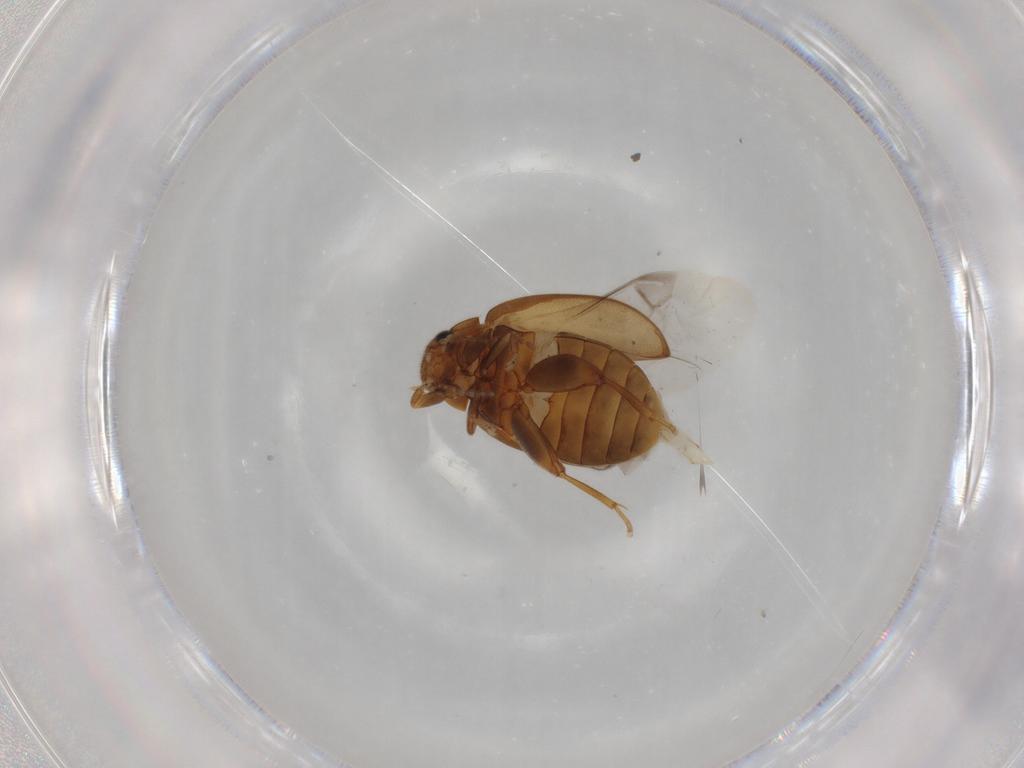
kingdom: Animalia
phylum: Arthropoda
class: Insecta
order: Coleoptera
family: Scirtidae
